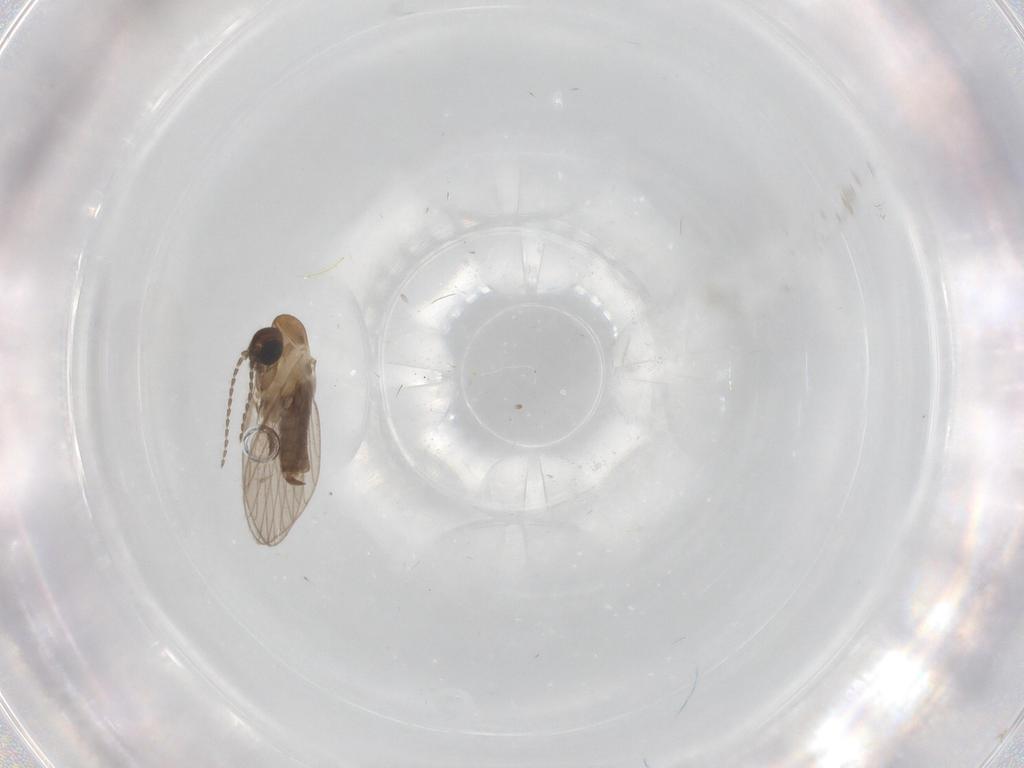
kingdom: Animalia
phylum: Arthropoda
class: Insecta
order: Diptera
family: Psychodidae
